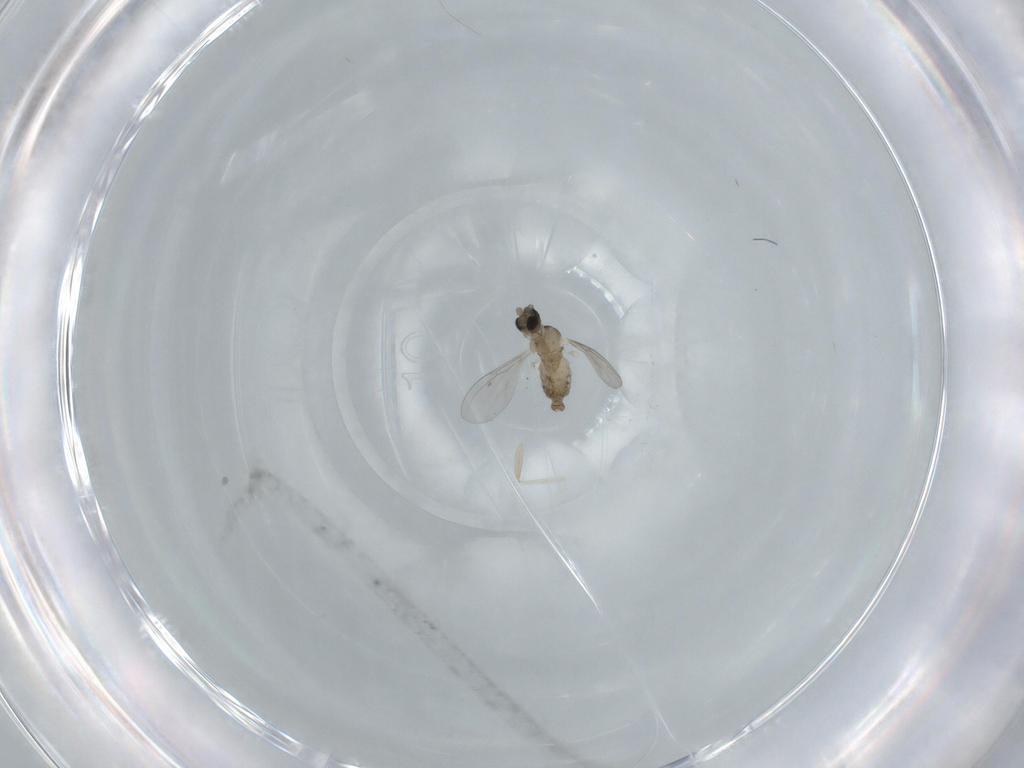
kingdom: Animalia
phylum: Arthropoda
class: Insecta
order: Diptera
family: Cecidomyiidae
